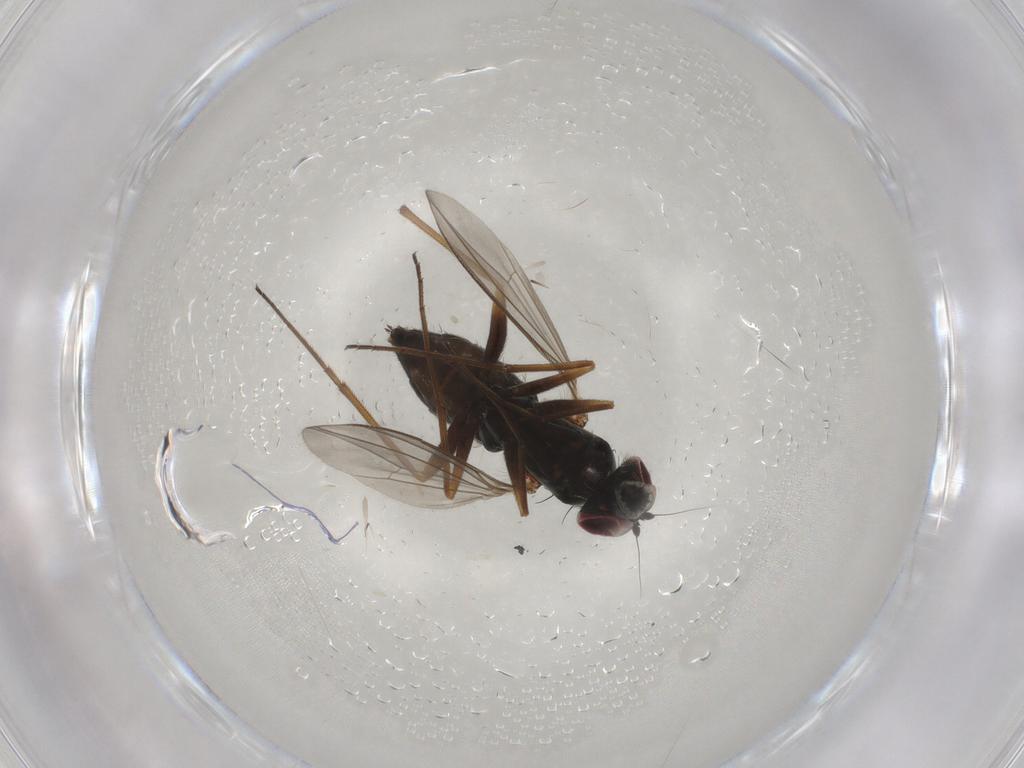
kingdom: Animalia
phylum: Arthropoda
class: Insecta
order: Diptera
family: Dolichopodidae
